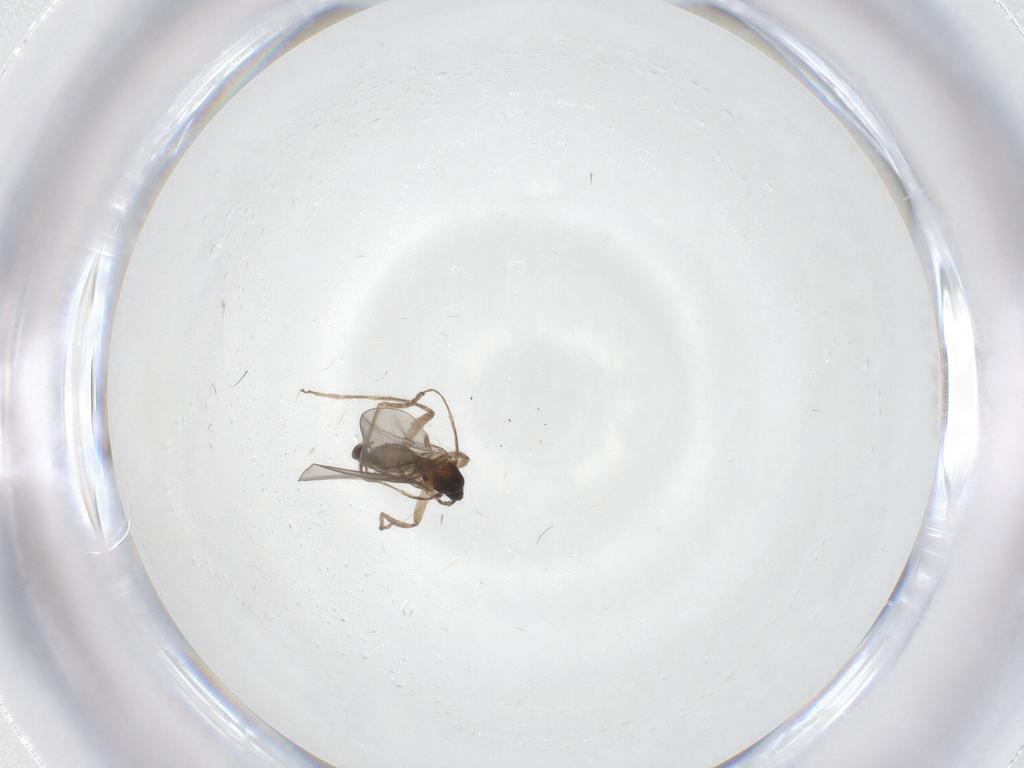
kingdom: Animalia
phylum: Arthropoda
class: Insecta
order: Diptera
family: Cecidomyiidae
